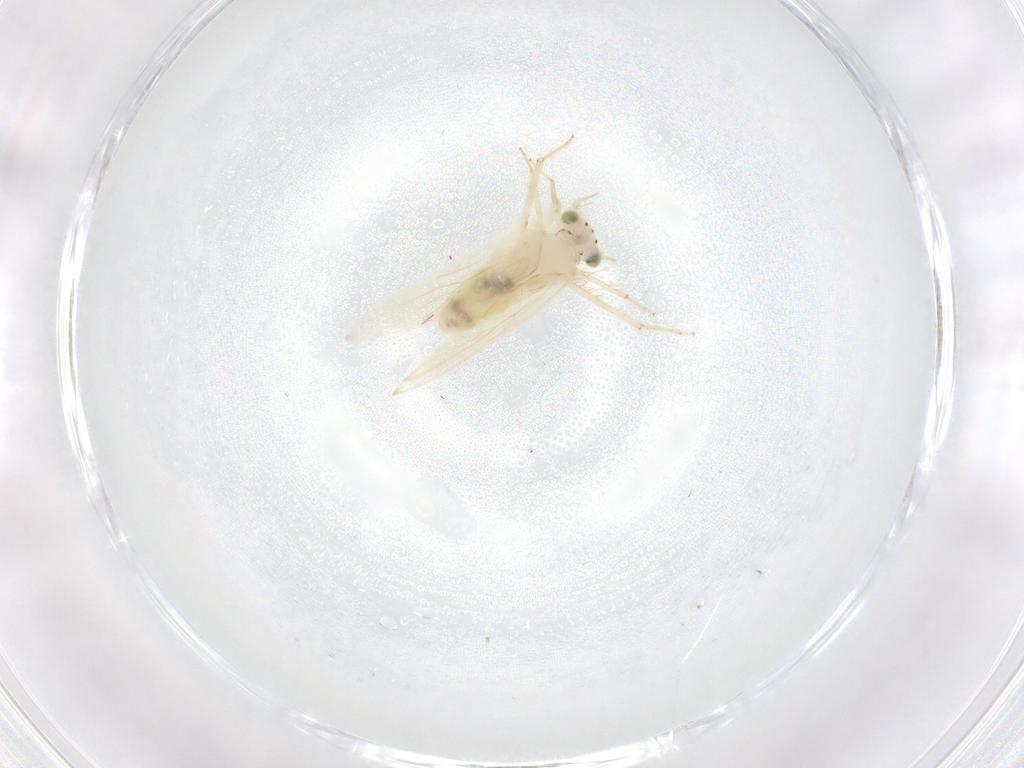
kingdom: Animalia
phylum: Arthropoda
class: Insecta
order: Psocodea
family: Lepidopsocidae
